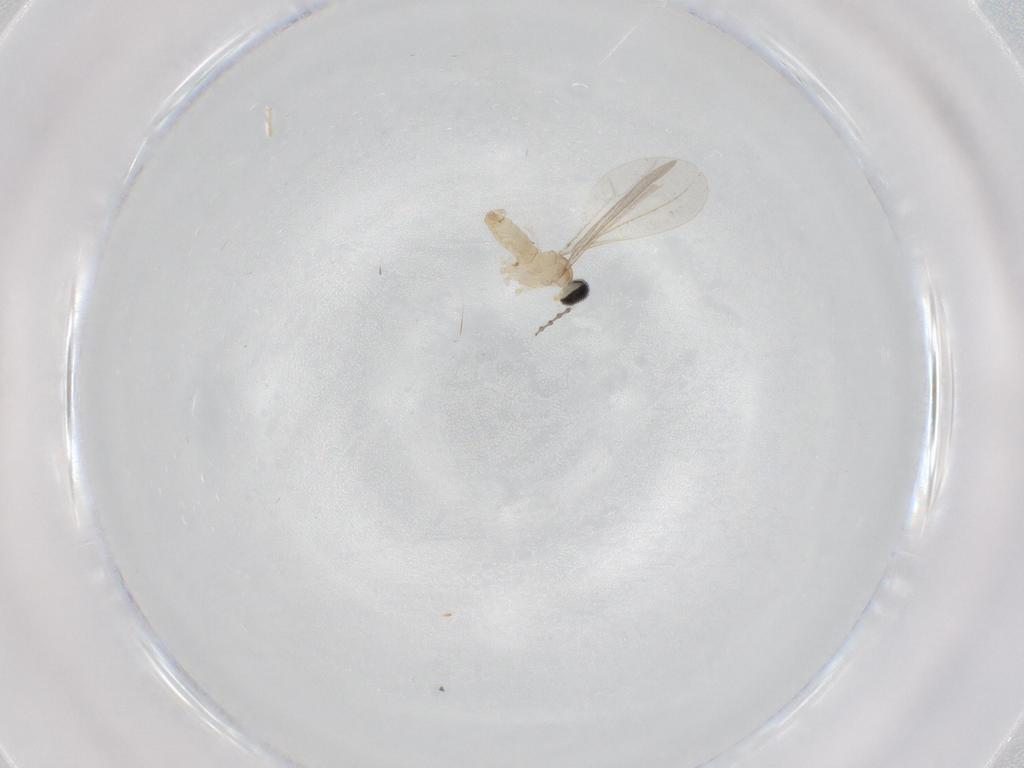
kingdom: Animalia
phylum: Arthropoda
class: Insecta
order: Diptera
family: Cecidomyiidae
